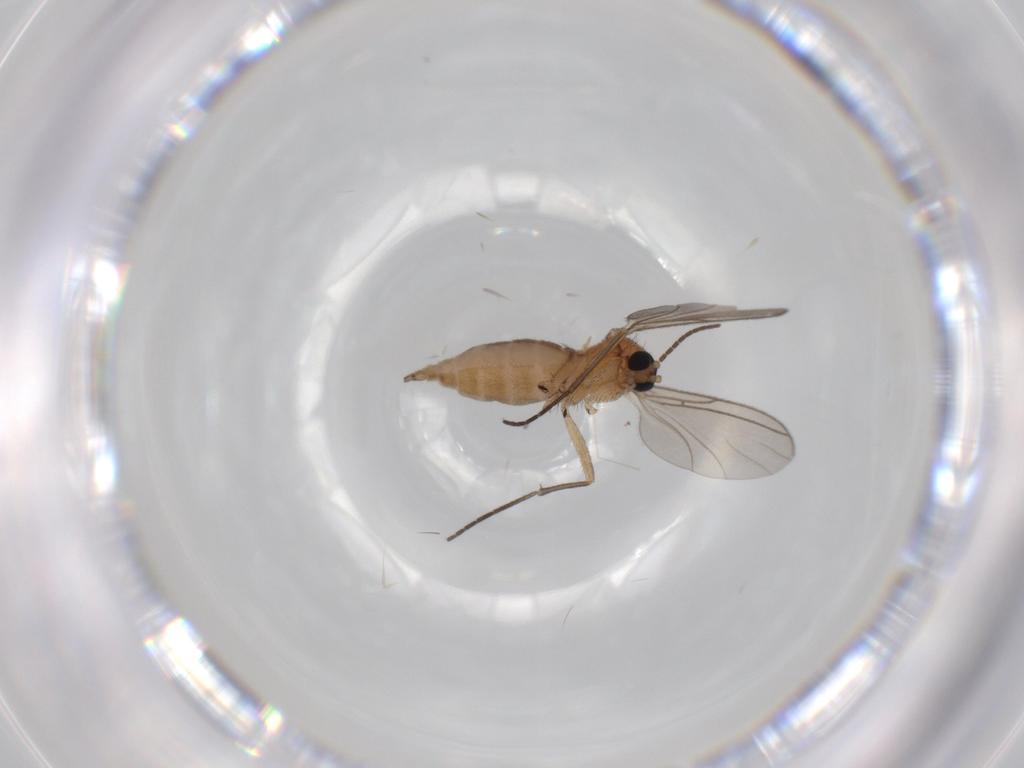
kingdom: Animalia
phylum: Arthropoda
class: Insecta
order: Diptera
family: Sciaridae
